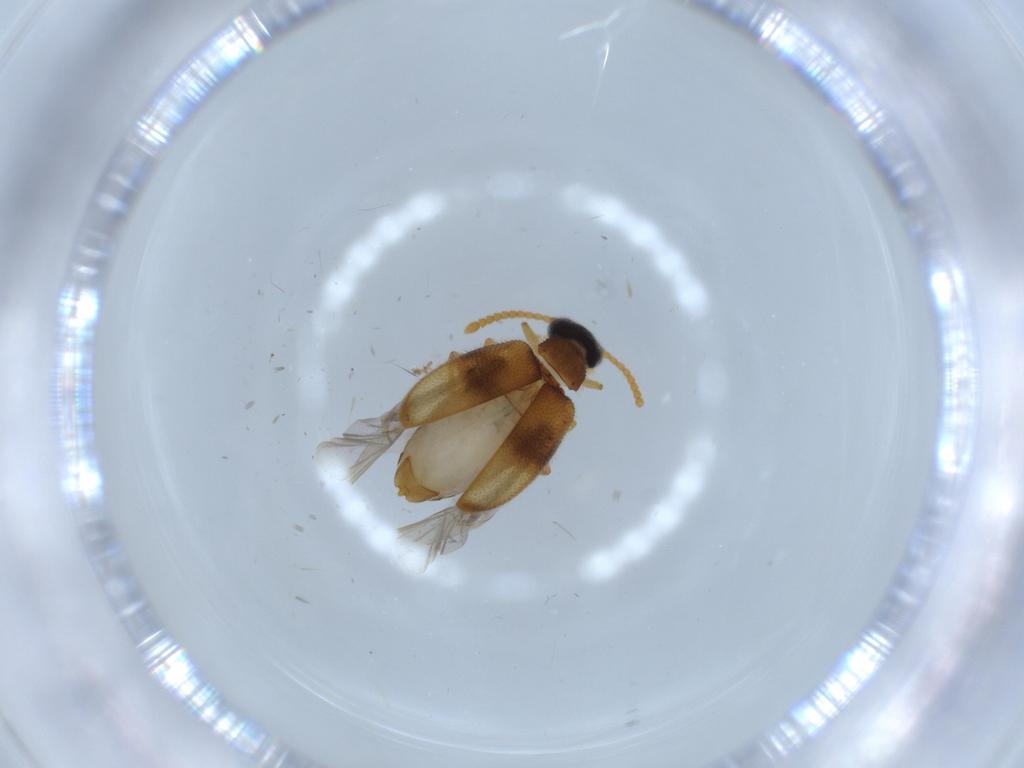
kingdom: Animalia
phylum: Arthropoda
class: Insecta
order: Coleoptera
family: Aderidae
